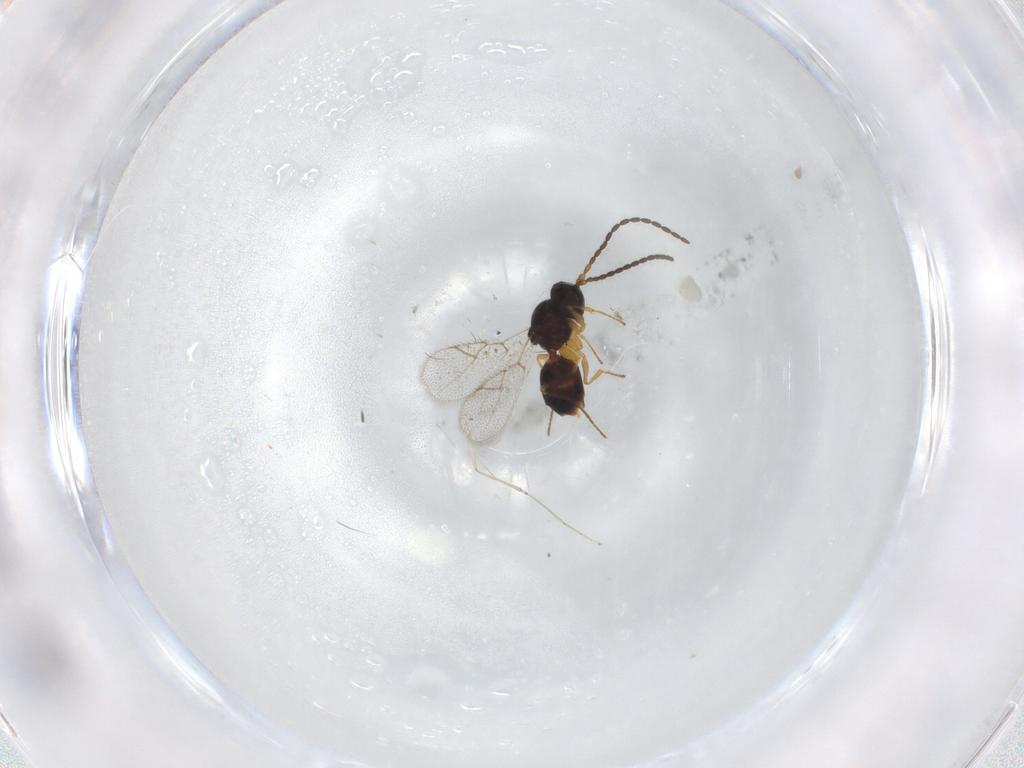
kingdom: Animalia
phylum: Arthropoda
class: Insecta
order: Hymenoptera
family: Figitidae
